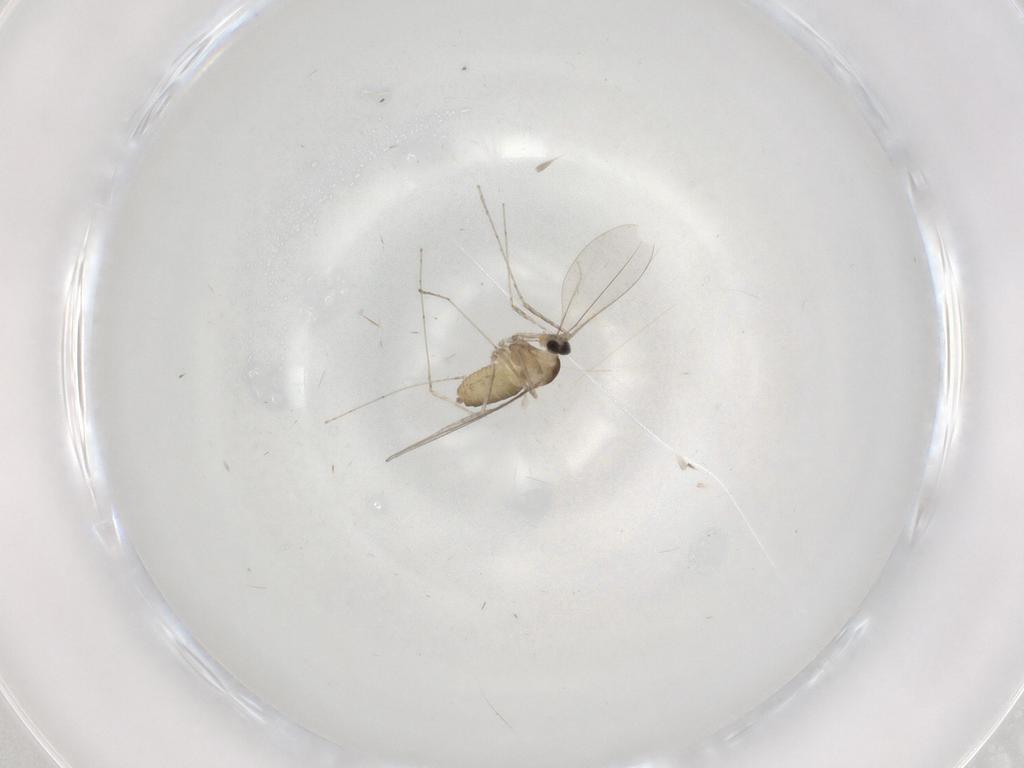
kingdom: Animalia
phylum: Arthropoda
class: Insecta
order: Diptera
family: Cecidomyiidae
